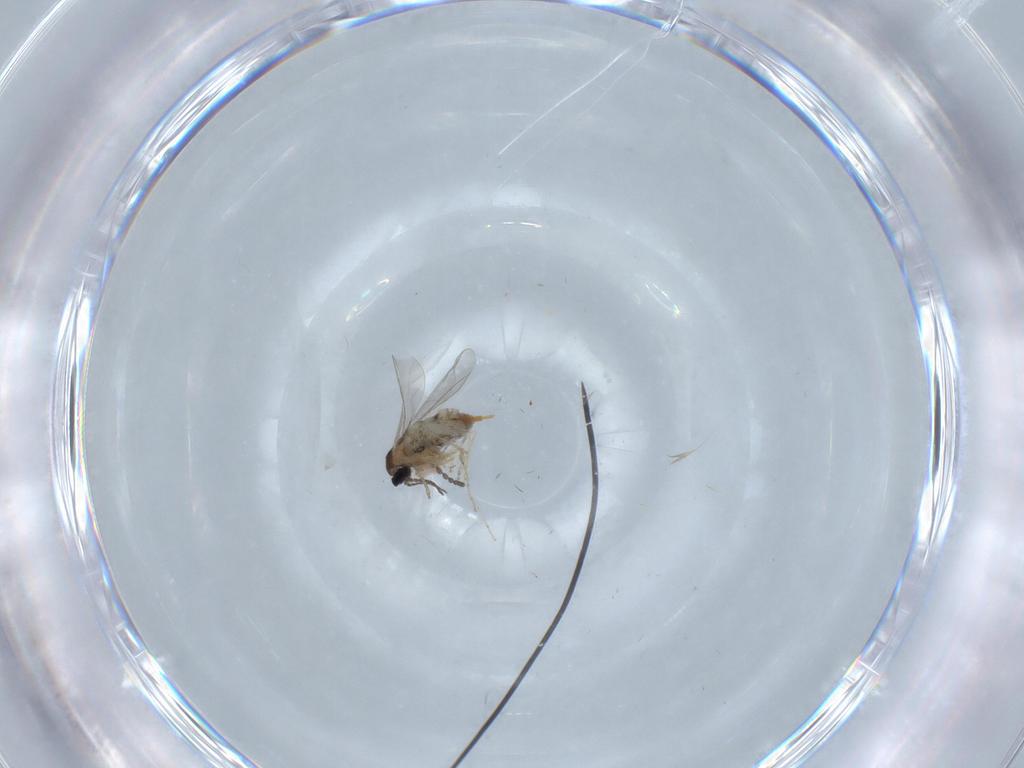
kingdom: Animalia
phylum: Arthropoda
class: Insecta
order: Diptera
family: Cecidomyiidae
